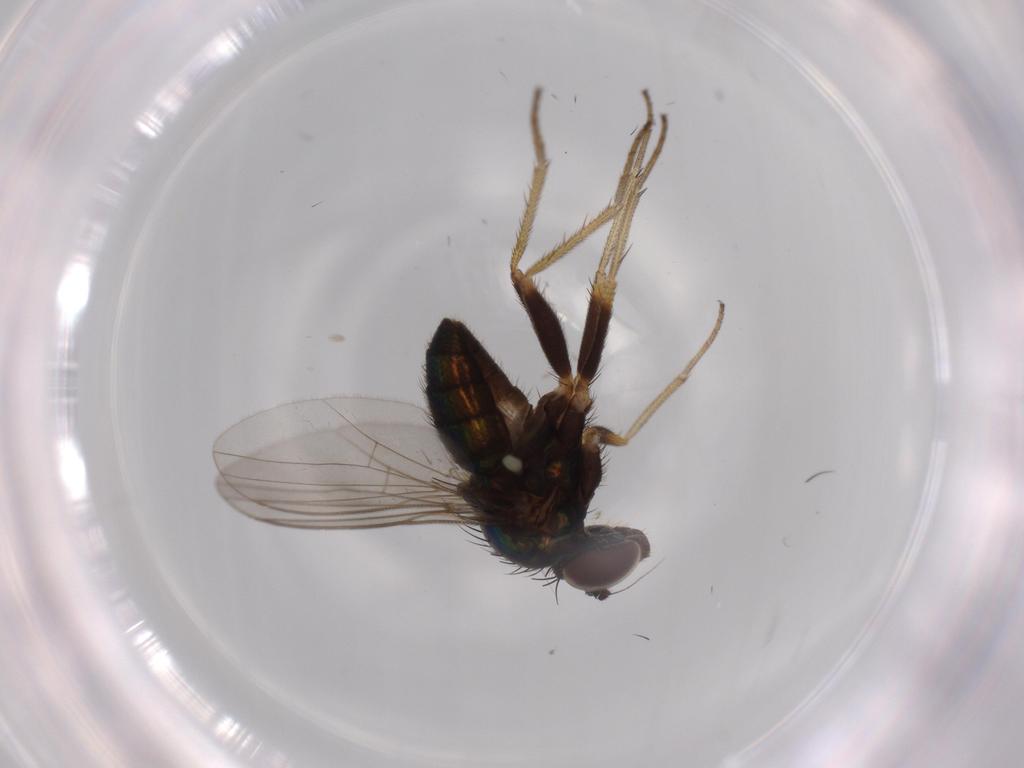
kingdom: Animalia
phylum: Arthropoda
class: Insecta
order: Diptera
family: Dolichopodidae
